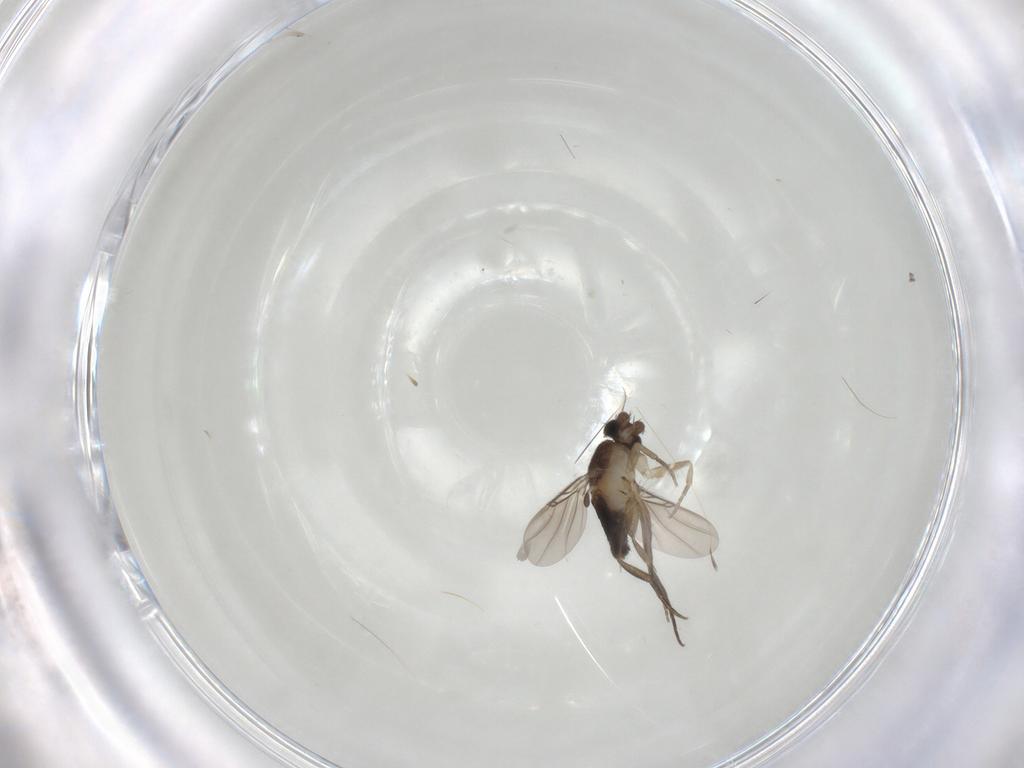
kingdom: Animalia
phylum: Arthropoda
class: Insecta
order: Diptera
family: Phoridae
